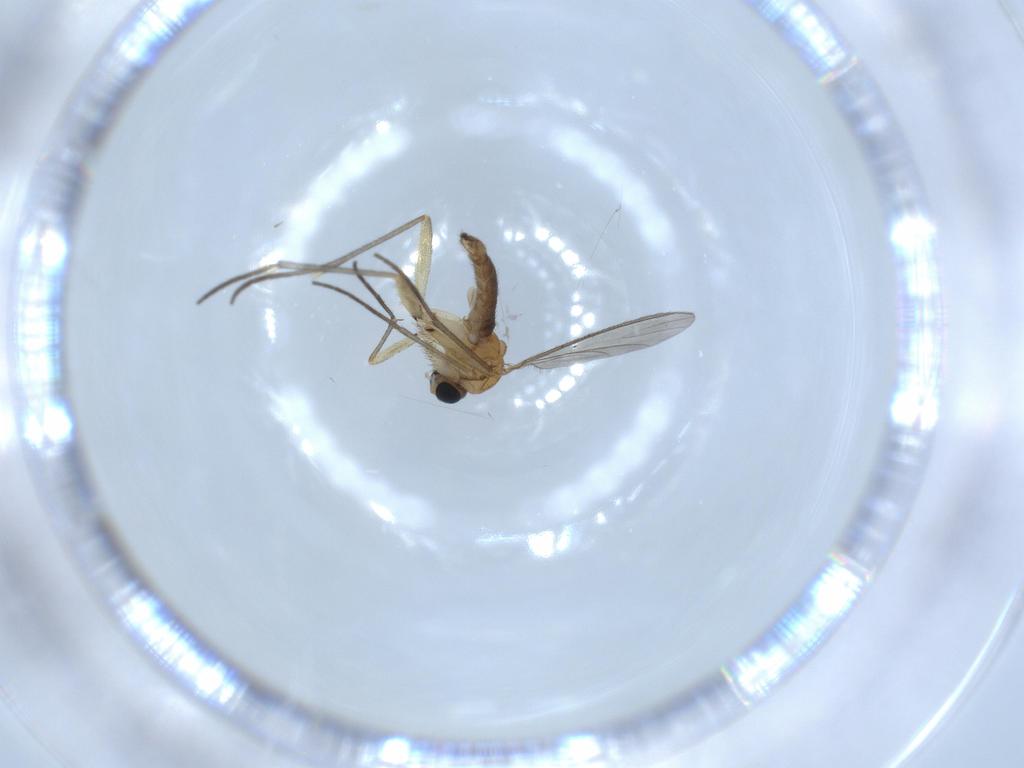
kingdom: Animalia
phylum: Arthropoda
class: Insecta
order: Diptera
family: Sciaridae
